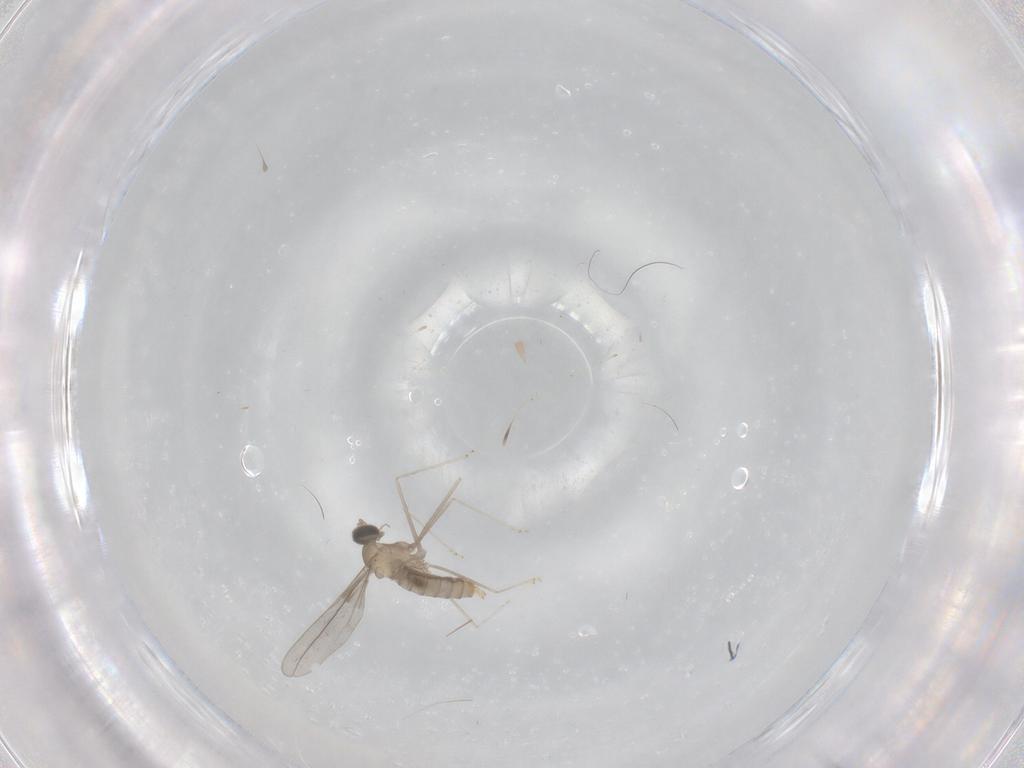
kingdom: Animalia
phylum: Arthropoda
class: Insecta
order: Diptera
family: Cecidomyiidae
